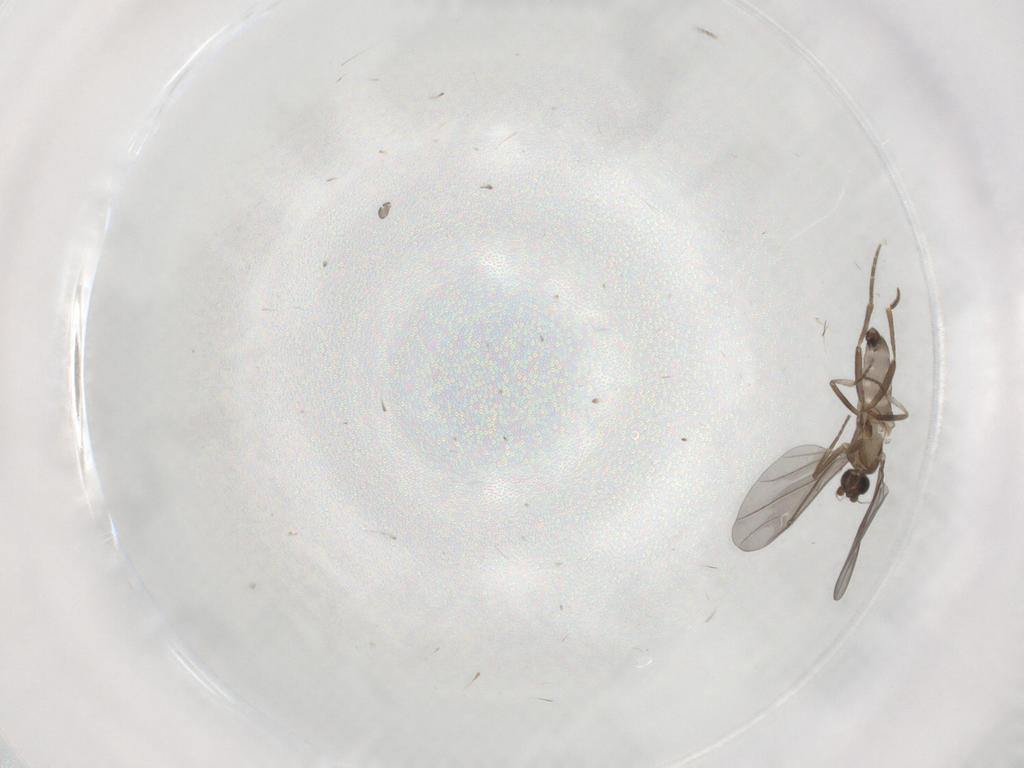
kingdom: Animalia
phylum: Arthropoda
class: Insecta
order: Diptera
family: Phoridae
